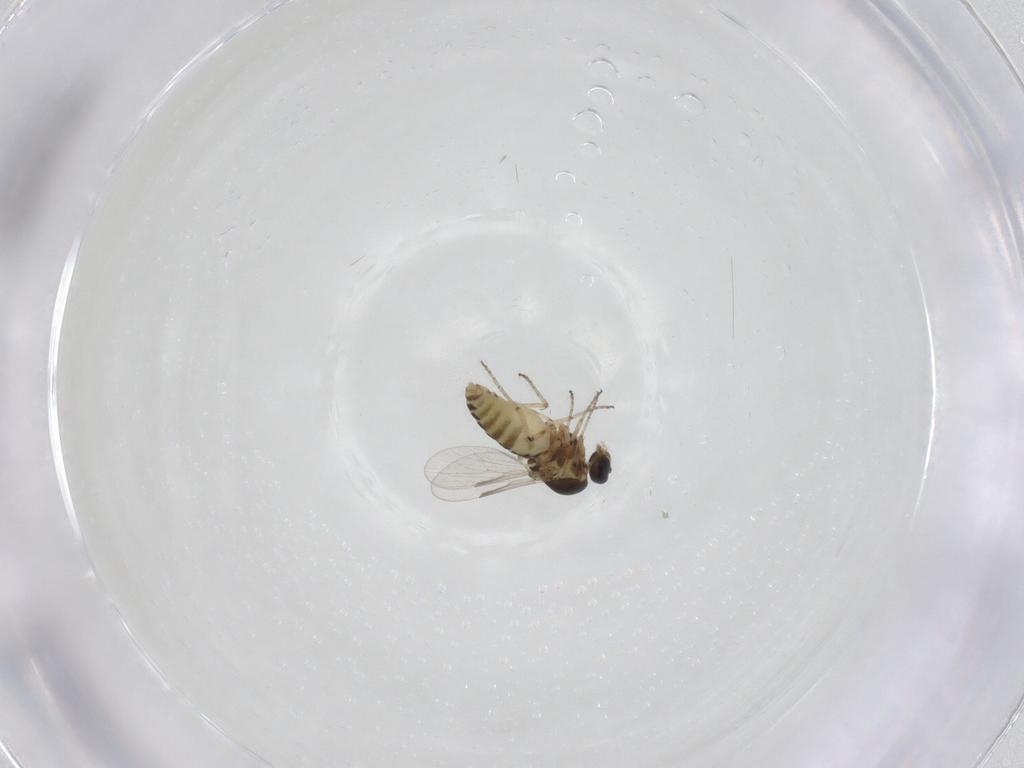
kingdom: Animalia
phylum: Arthropoda
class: Insecta
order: Diptera
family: Ceratopogonidae
